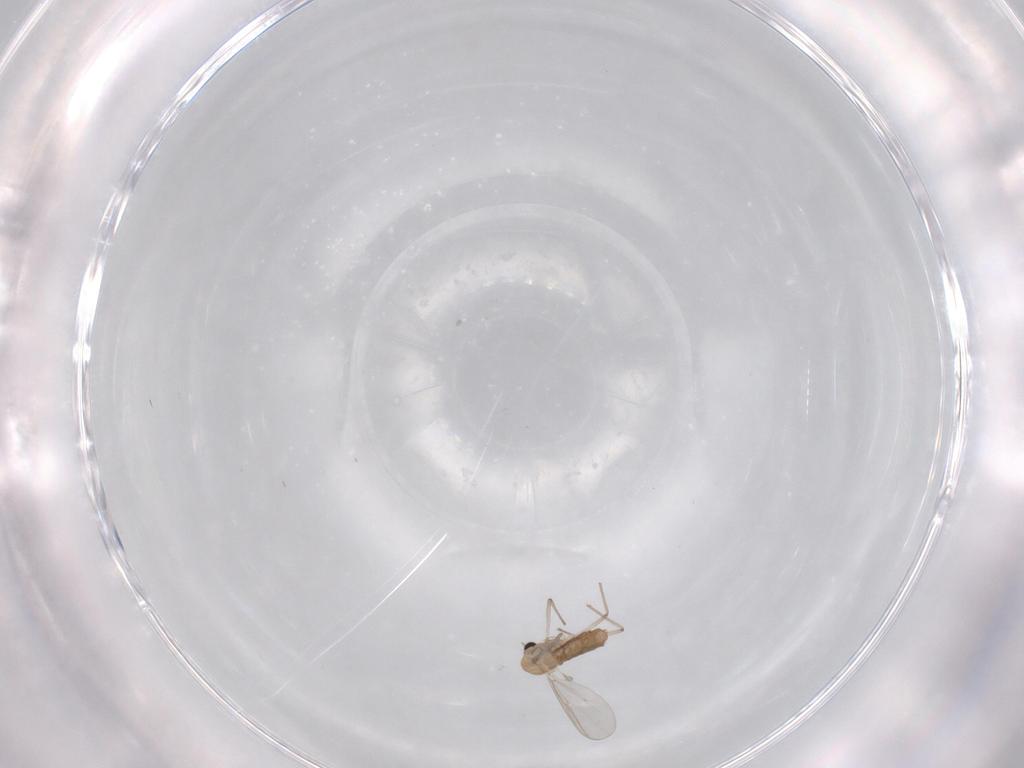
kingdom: Animalia
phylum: Arthropoda
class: Insecta
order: Diptera
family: Chironomidae
